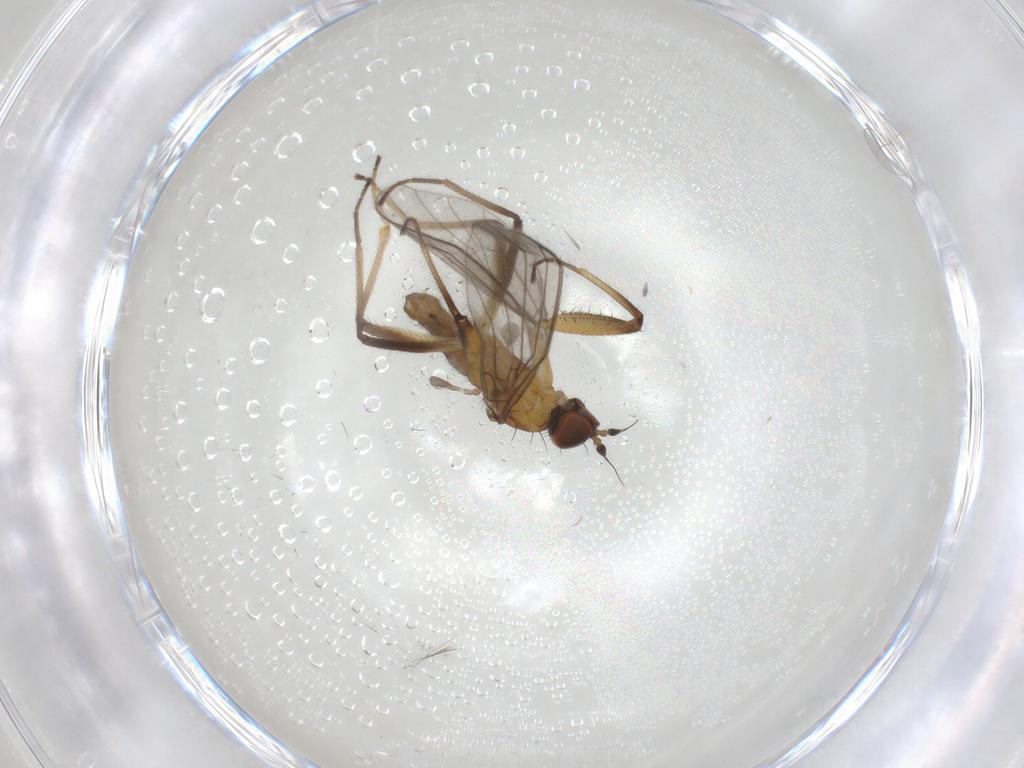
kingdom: Animalia
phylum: Arthropoda
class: Insecta
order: Diptera
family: Empididae
